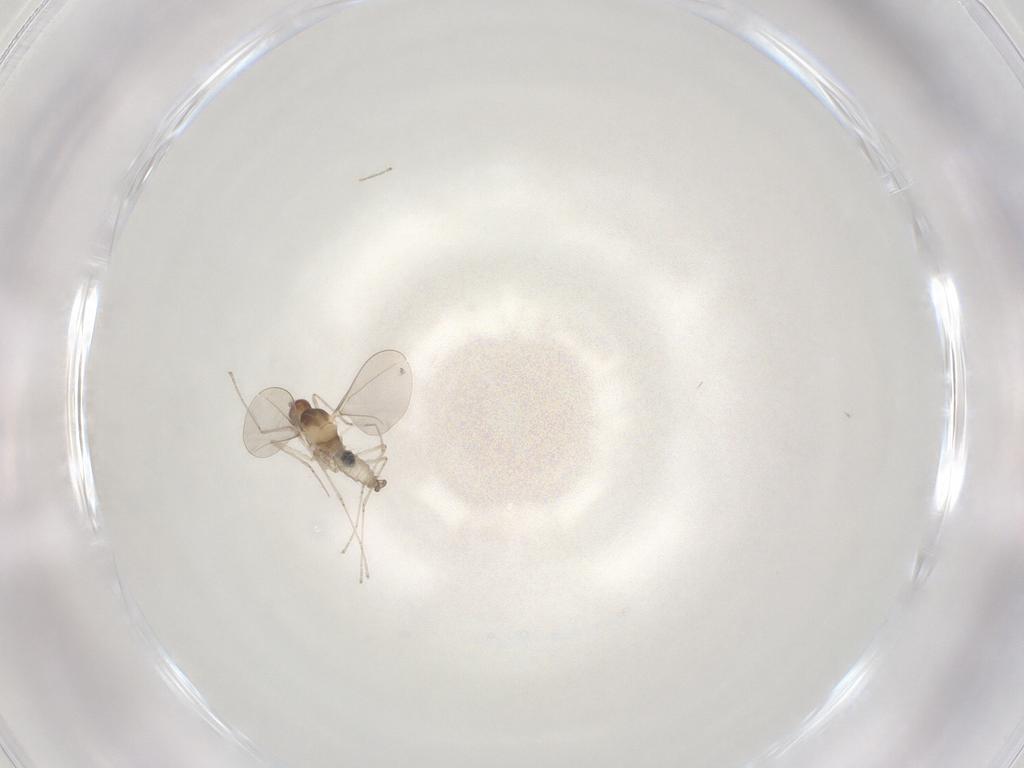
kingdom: Animalia
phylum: Arthropoda
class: Insecta
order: Diptera
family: Cecidomyiidae
